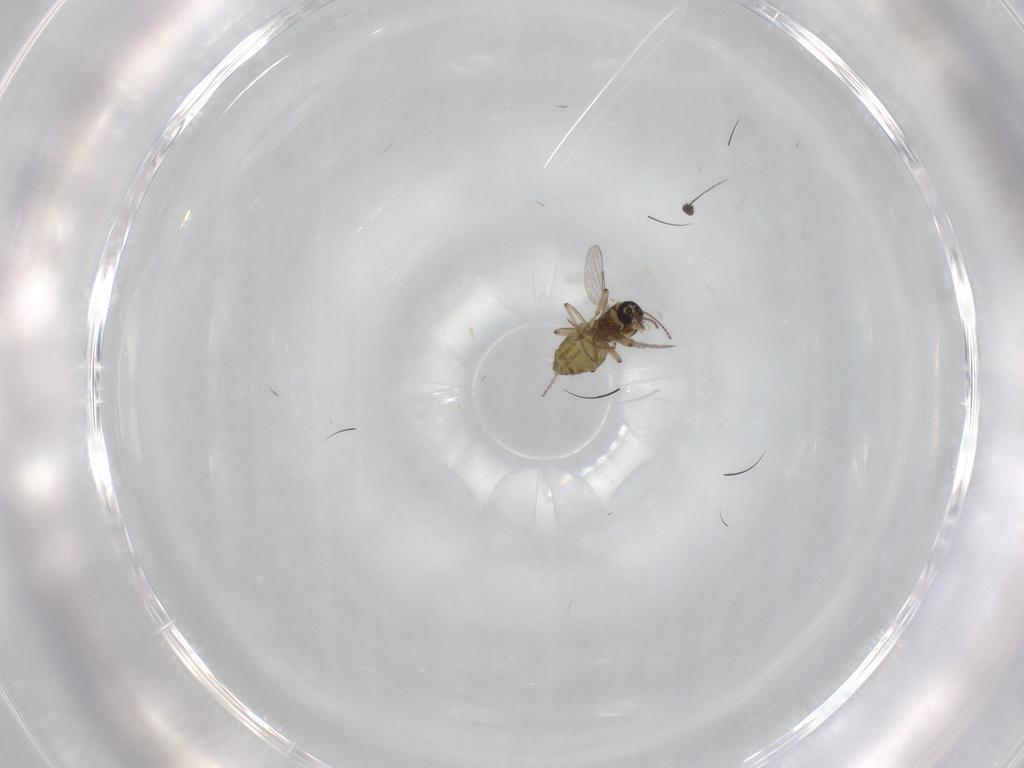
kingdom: Animalia
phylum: Arthropoda
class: Insecta
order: Diptera
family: Ceratopogonidae
